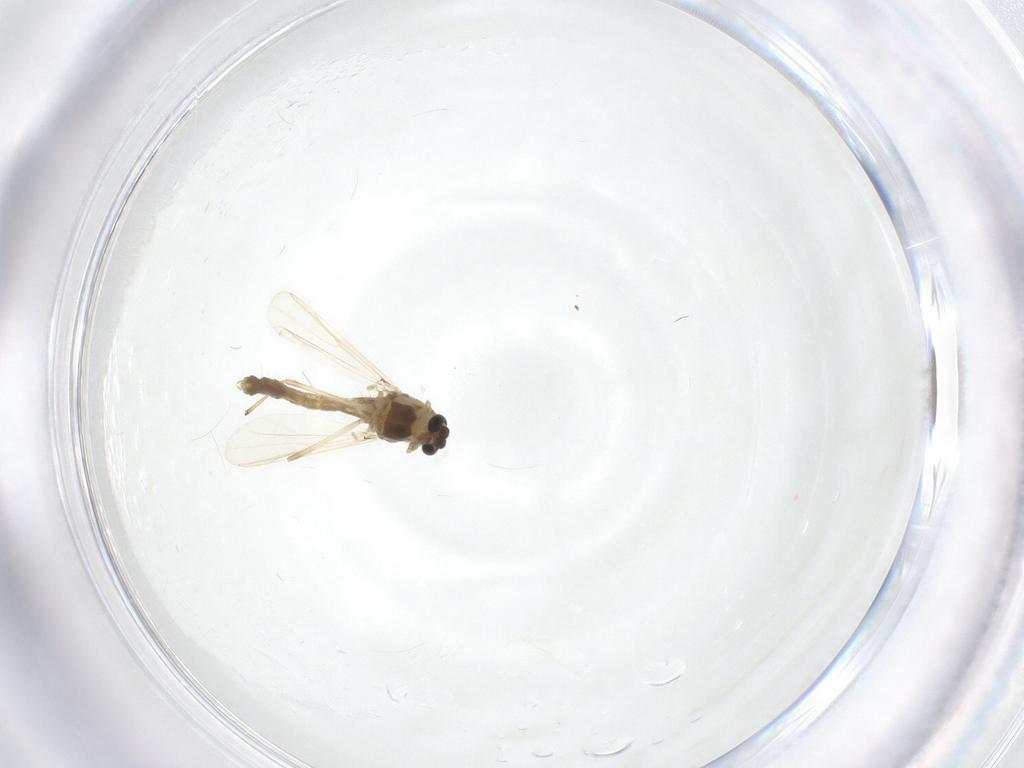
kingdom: Animalia
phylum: Arthropoda
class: Insecta
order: Diptera
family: Chironomidae
